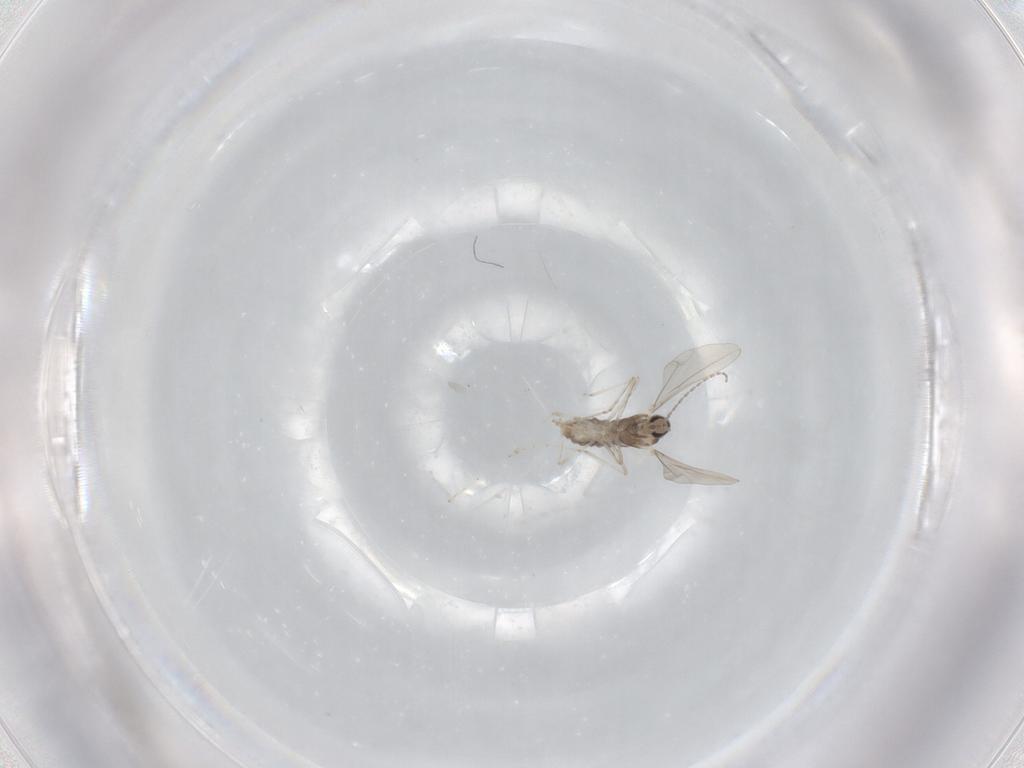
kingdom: Animalia
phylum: Arthropoda
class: Insecta
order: Diptera
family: Cecidomyiidae
